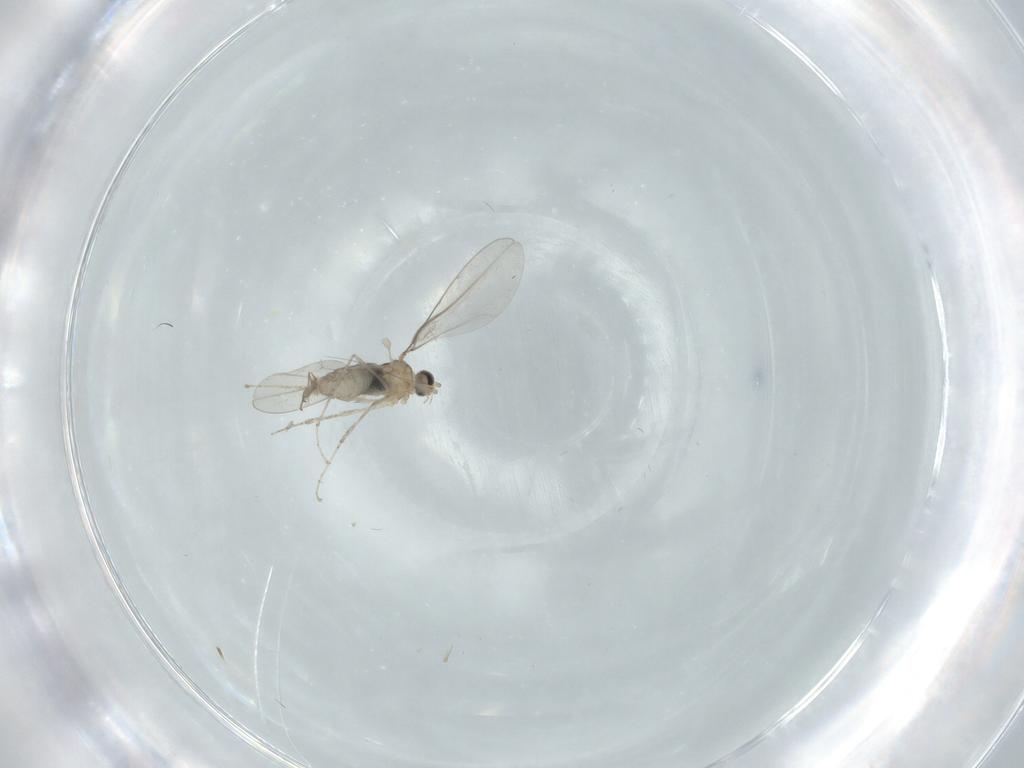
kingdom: Animalia
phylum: Arthropoda
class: Insecta
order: Diptera
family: Cecidomyiidae
